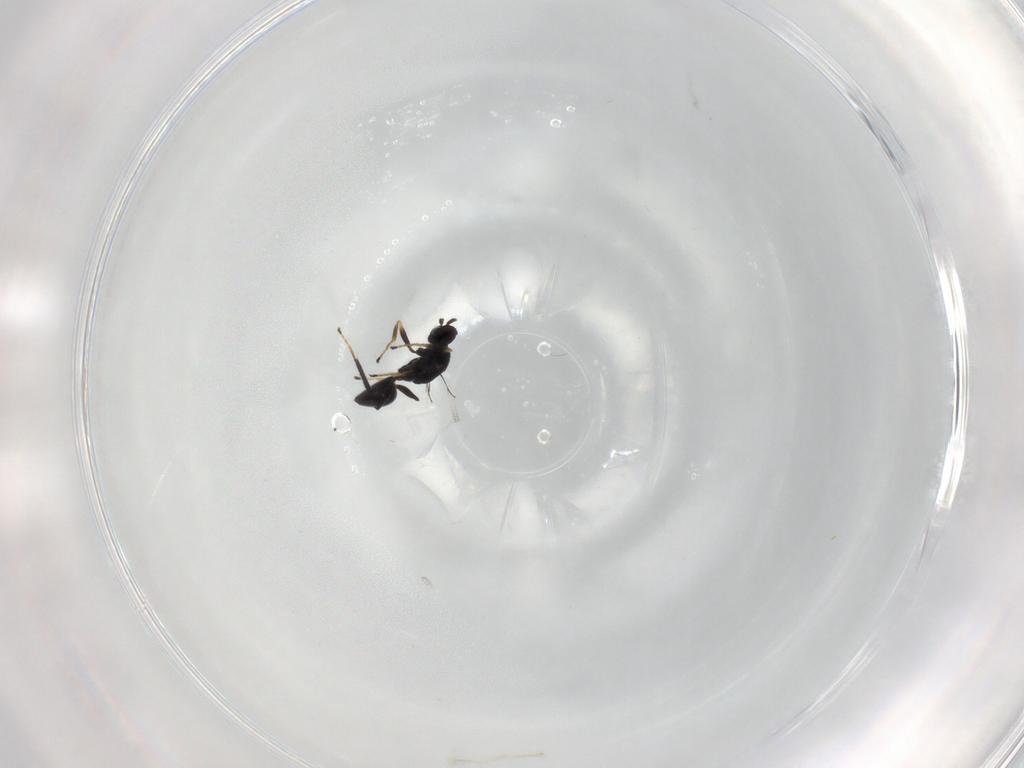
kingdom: Animalia
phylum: Arthropoda
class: Insecta
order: Hymenoptera
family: Mymaridae
